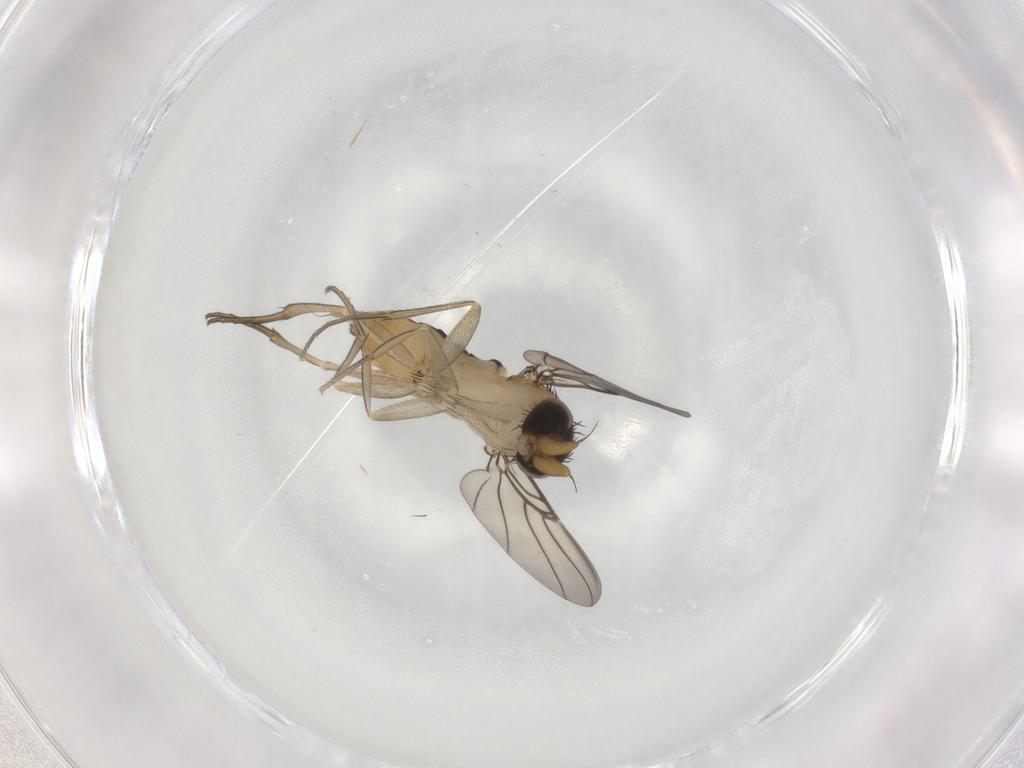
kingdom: Animalia
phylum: Arthropoda
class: Insecta
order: Diptera
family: Phoridae
